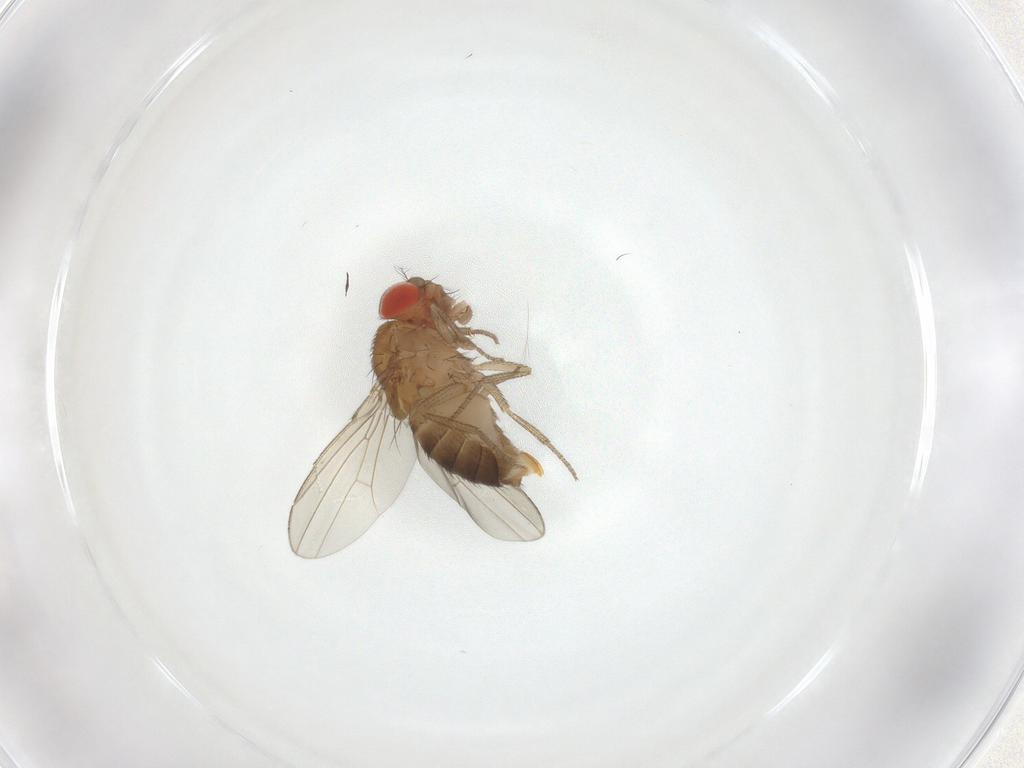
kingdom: Animalia
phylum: Arthropoda
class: Insecta
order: Diptera
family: Drosophilidae
